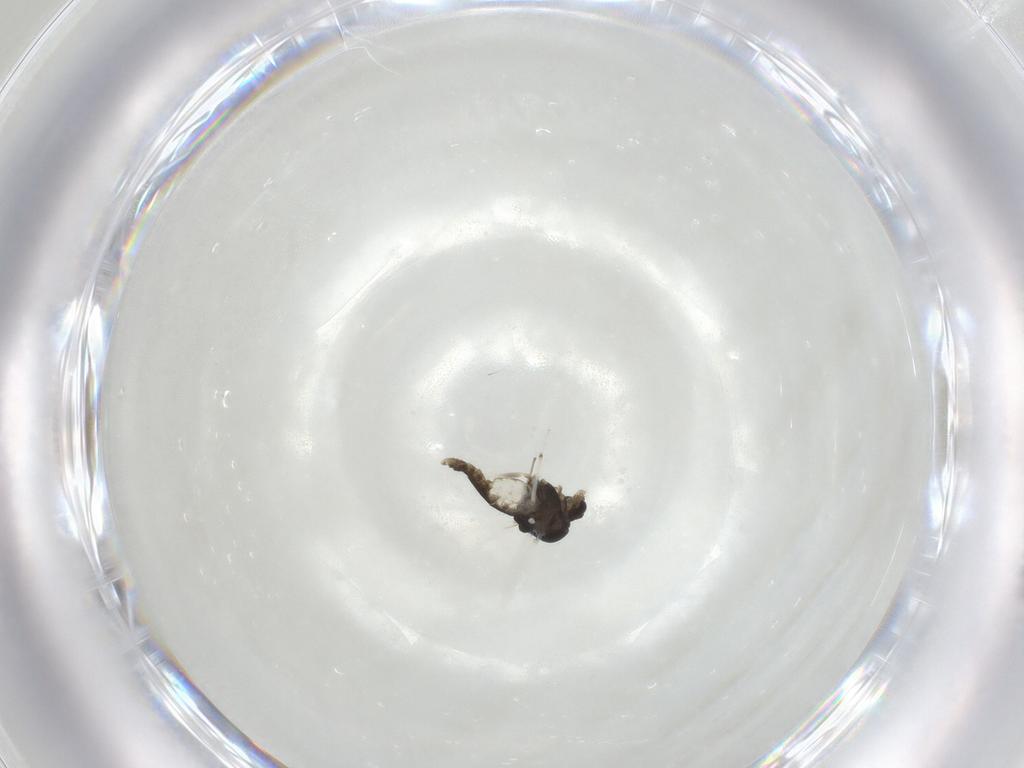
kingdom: Animalia
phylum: Arthropoda
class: Insecta
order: Diptera
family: Chironomidae
